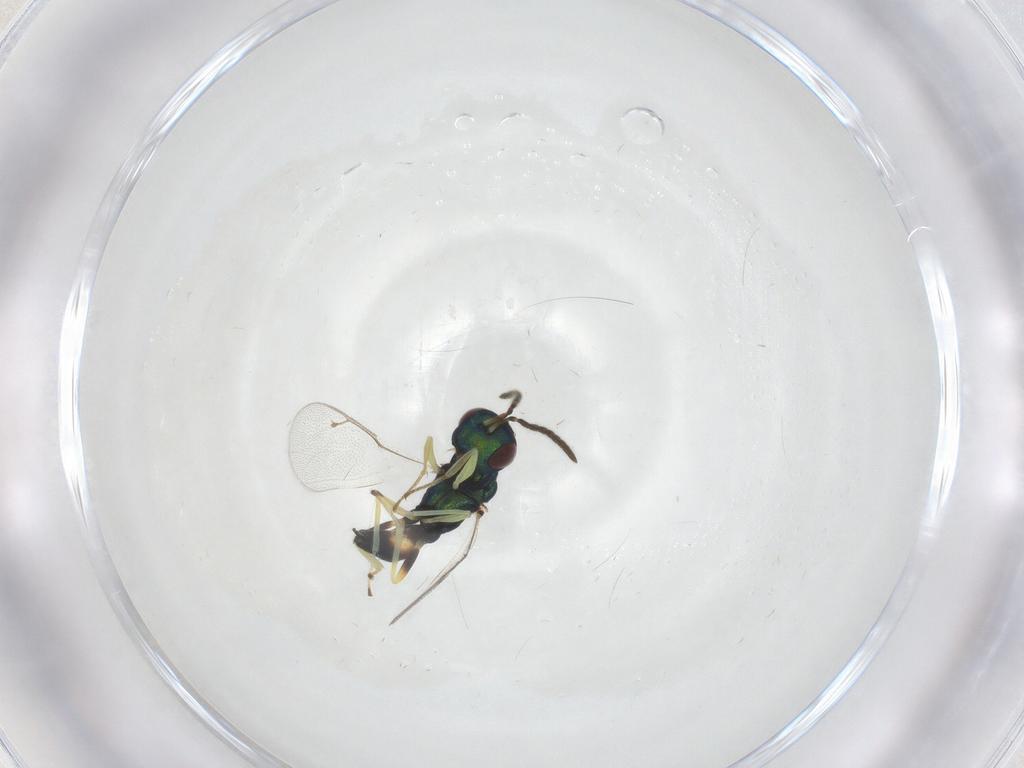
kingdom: Animalia
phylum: Arthropoda
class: Insecta
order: Hymenoptera
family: Pteromalidae
